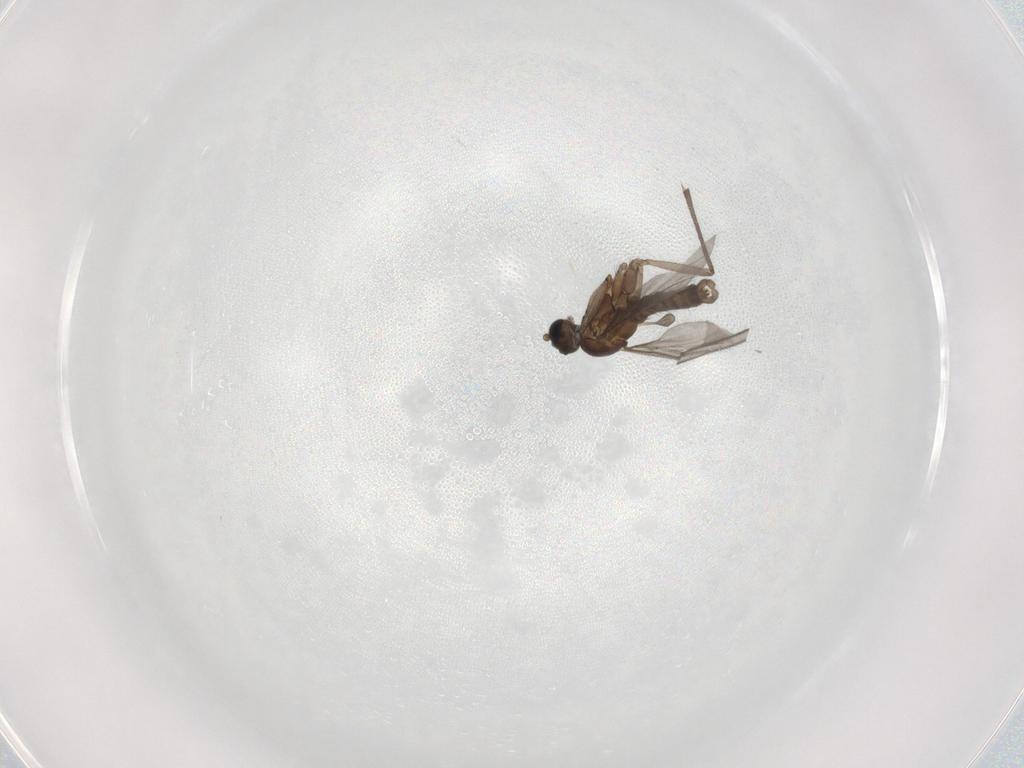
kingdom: Animalia
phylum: Arthropoda
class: Insecta
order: Diptera
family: Sciaridae
